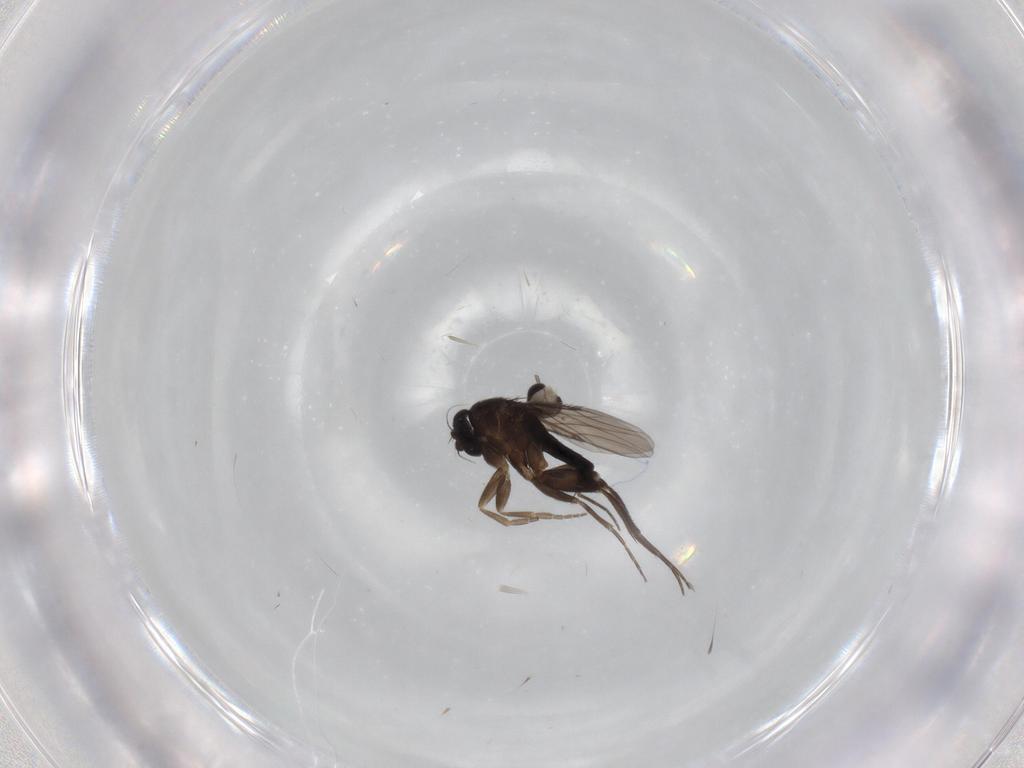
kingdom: Animalia
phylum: Arthropoda
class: Insecta
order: Diptera
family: Cecidomyiidae
